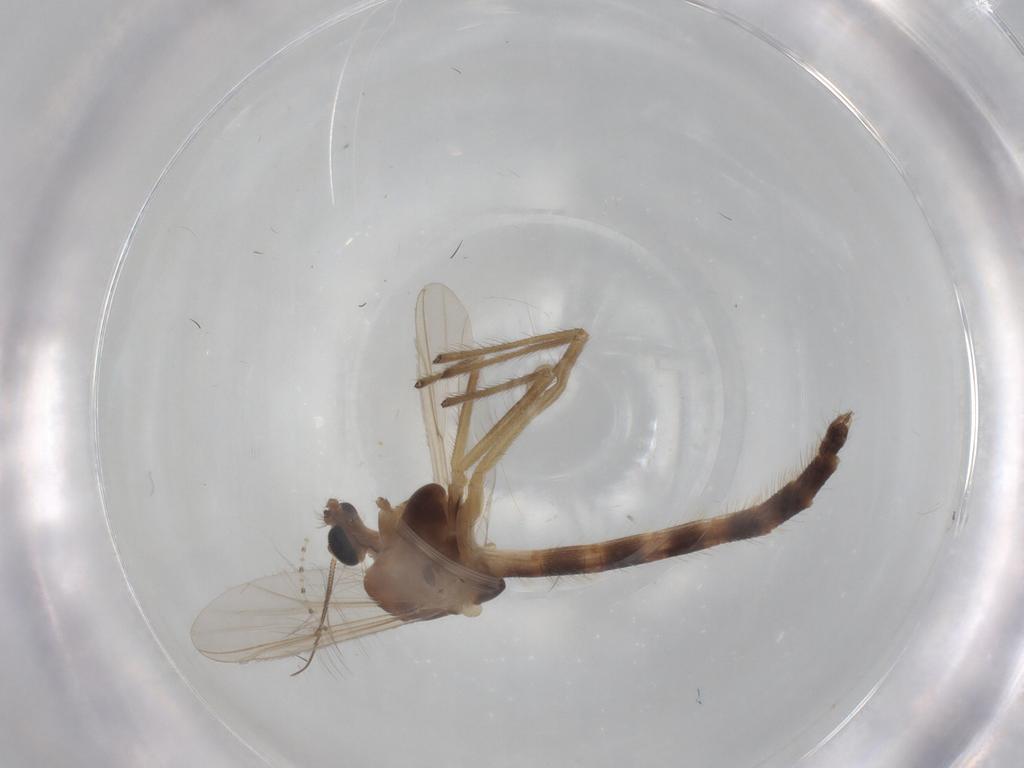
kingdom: Animalia
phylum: Arthropoda
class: Insecta
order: Diptera
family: Chironomidae
